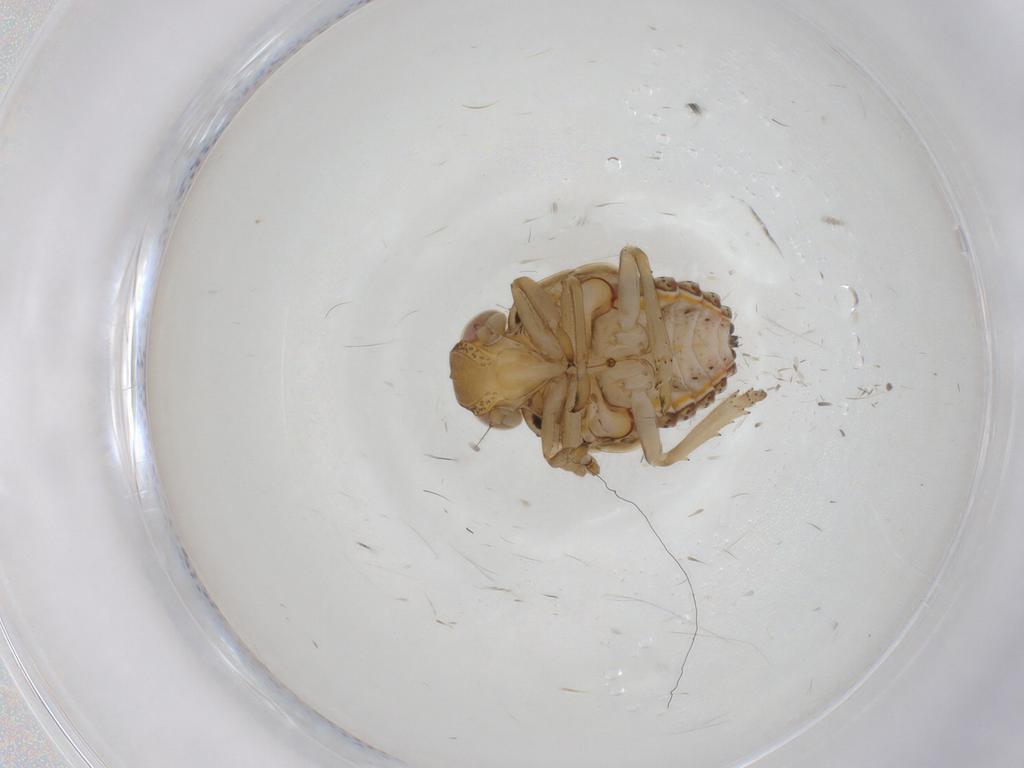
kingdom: Animalia
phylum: Arthropoda
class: Insecta
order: Hemiptera
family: Issidae
